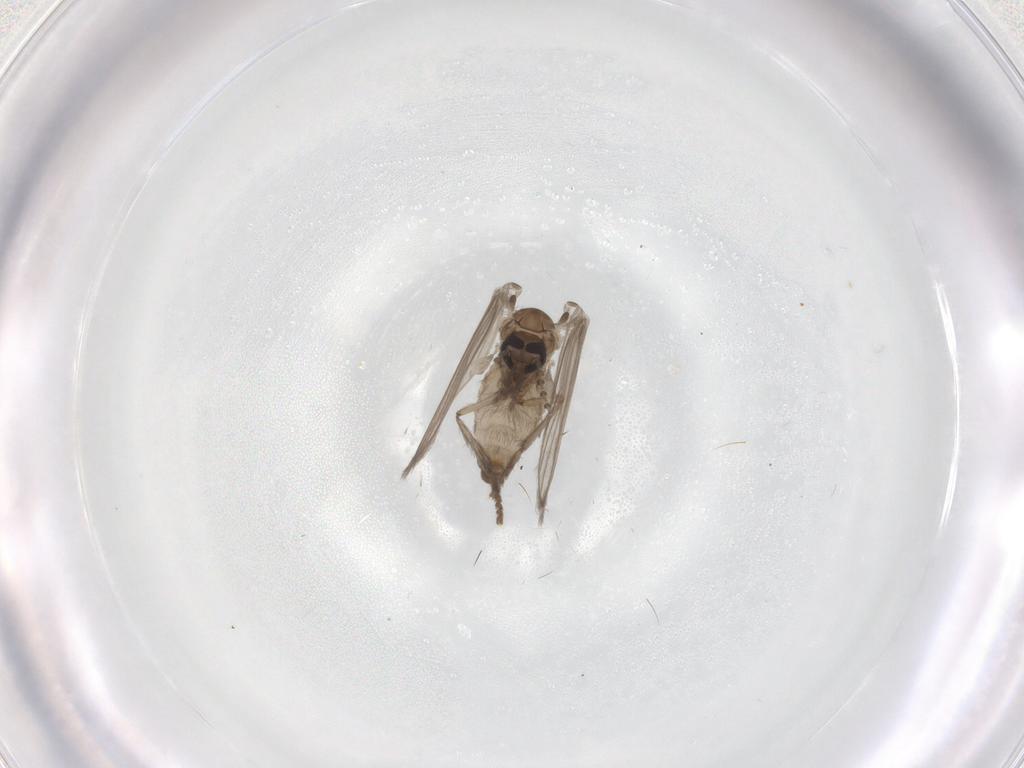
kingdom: Animalia
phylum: Arthropoda
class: Insecta
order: Diptera
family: Psychodidae
